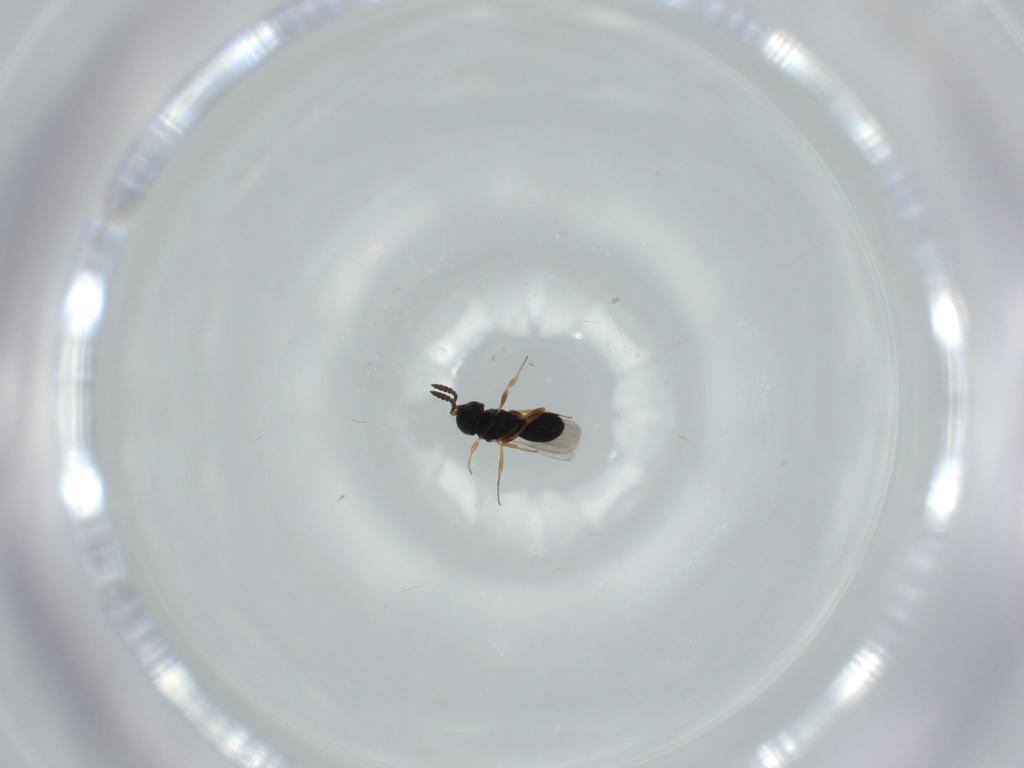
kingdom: Animalia
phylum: Arthropoda
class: Insecta
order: Hymenoptera
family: Scelionidae
